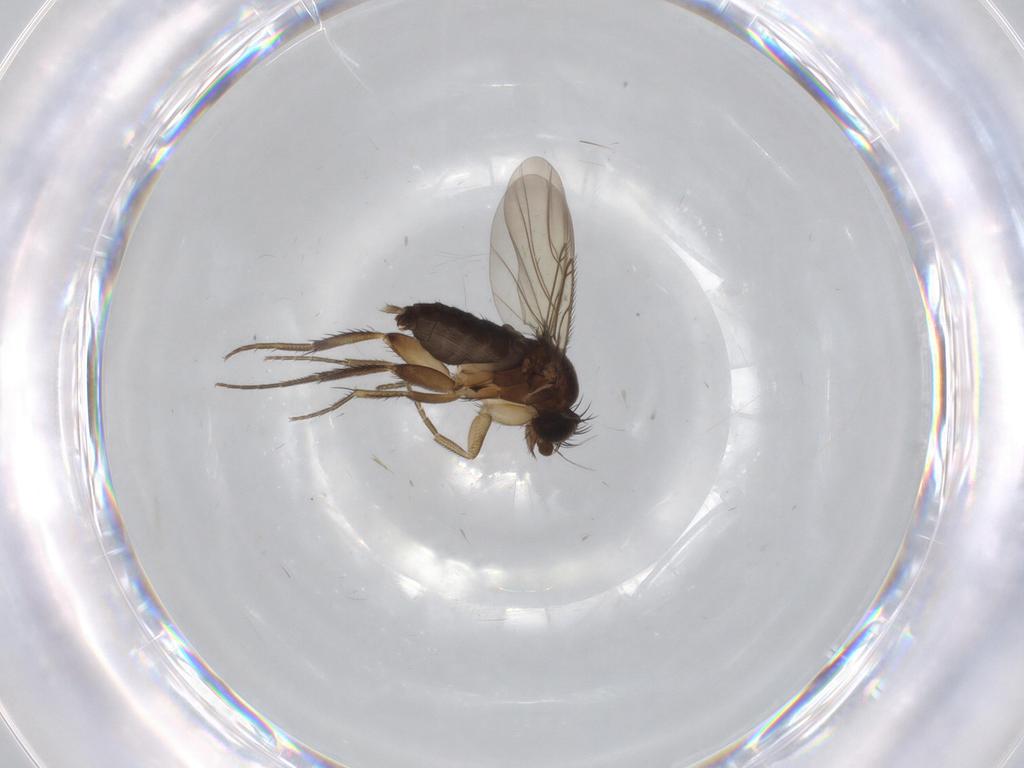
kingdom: Animalia
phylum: Arthropoda
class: Insecta
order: Diptera
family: Phoridae
